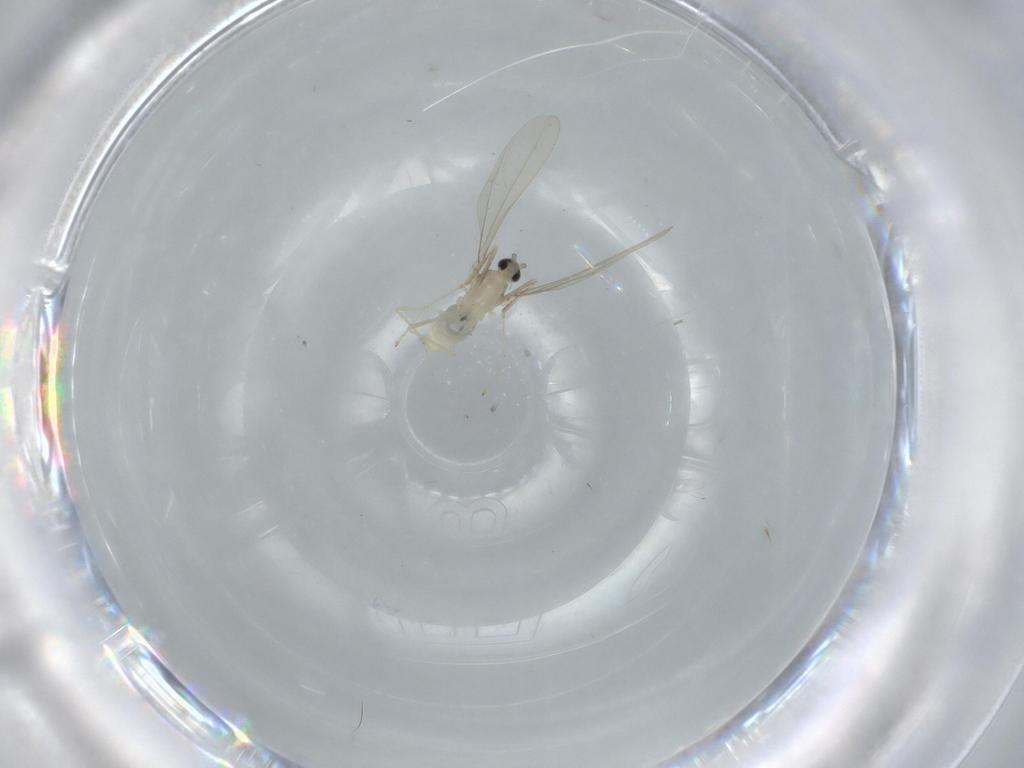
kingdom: Animalia
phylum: Arthropoda
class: Insecta
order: Diptera
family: Cecidomyiidae
